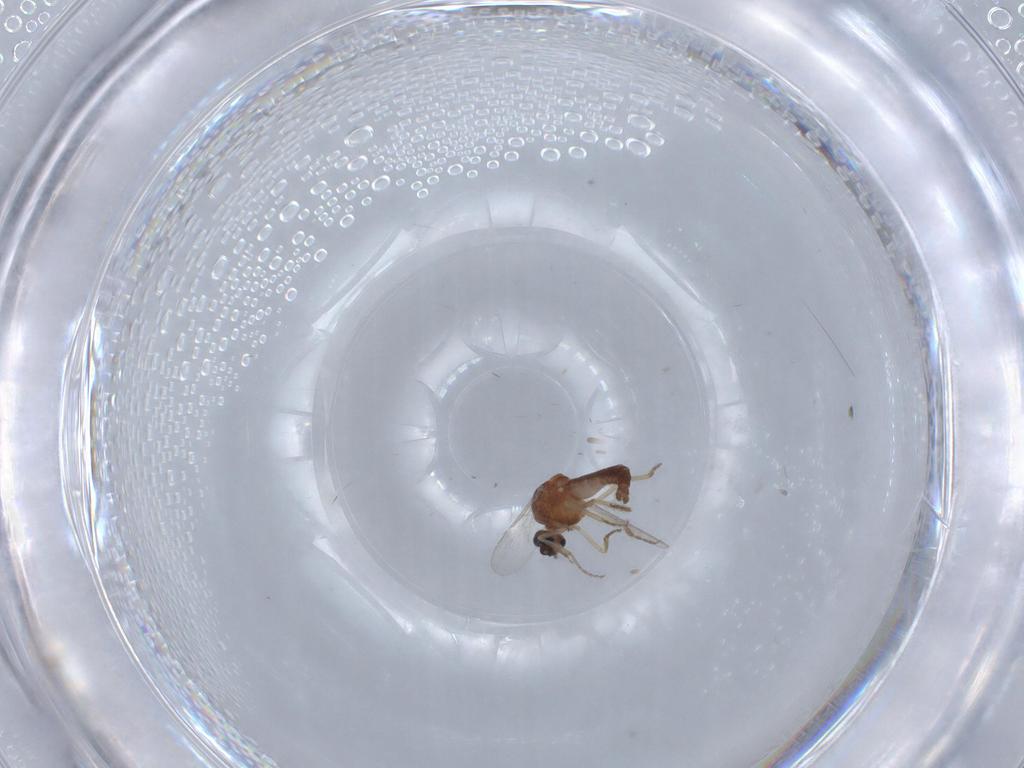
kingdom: Animalia
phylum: Arthropoda
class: Insecta
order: Diptera
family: Ceratopogonidae
